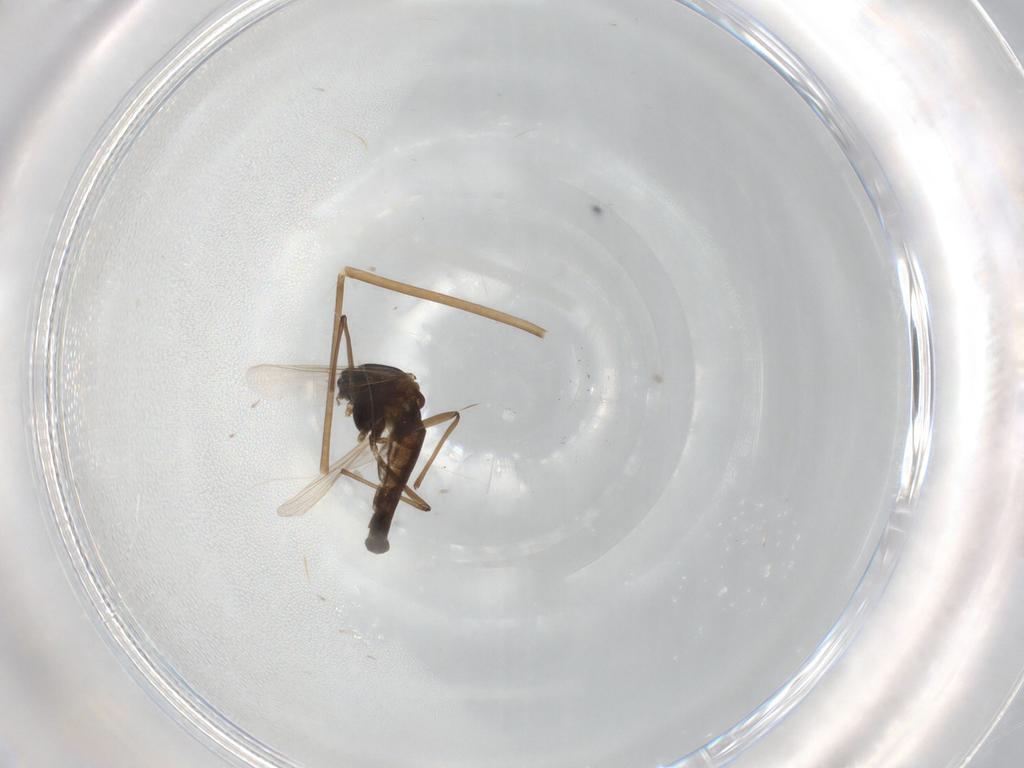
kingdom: Animalia
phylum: Arthropoda
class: Insecta
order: Diptera
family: Cecidomyiidae
